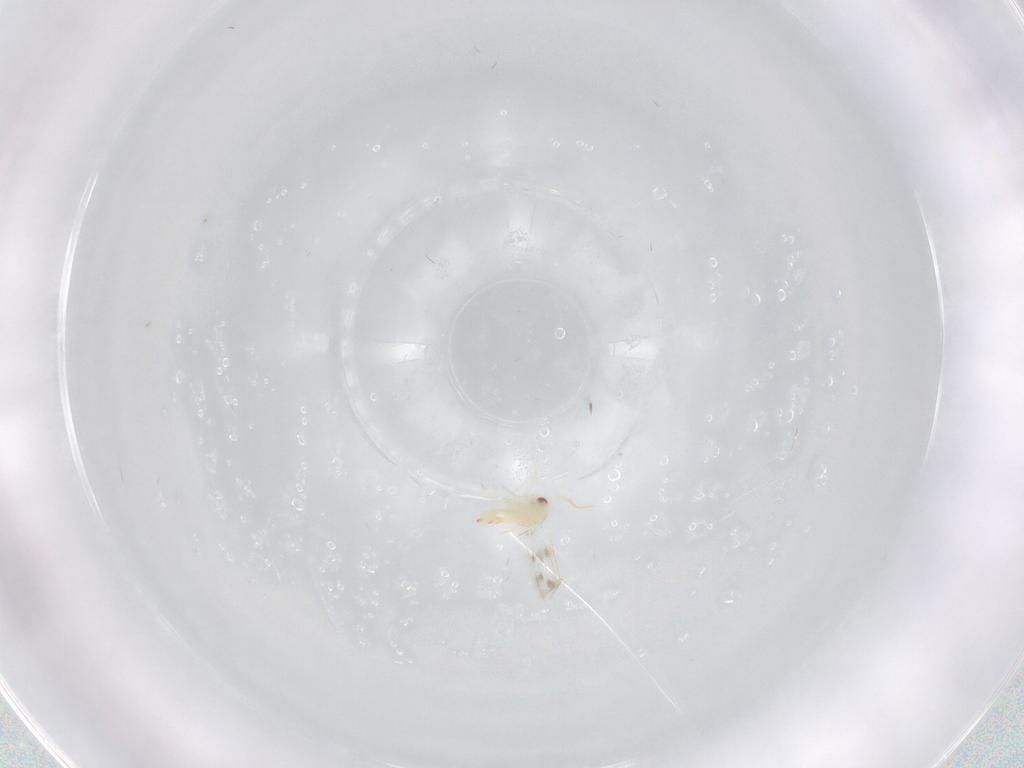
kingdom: Animalia
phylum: Arthropoda
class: Insecta
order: Hemiptera
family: Aleyrodidae
